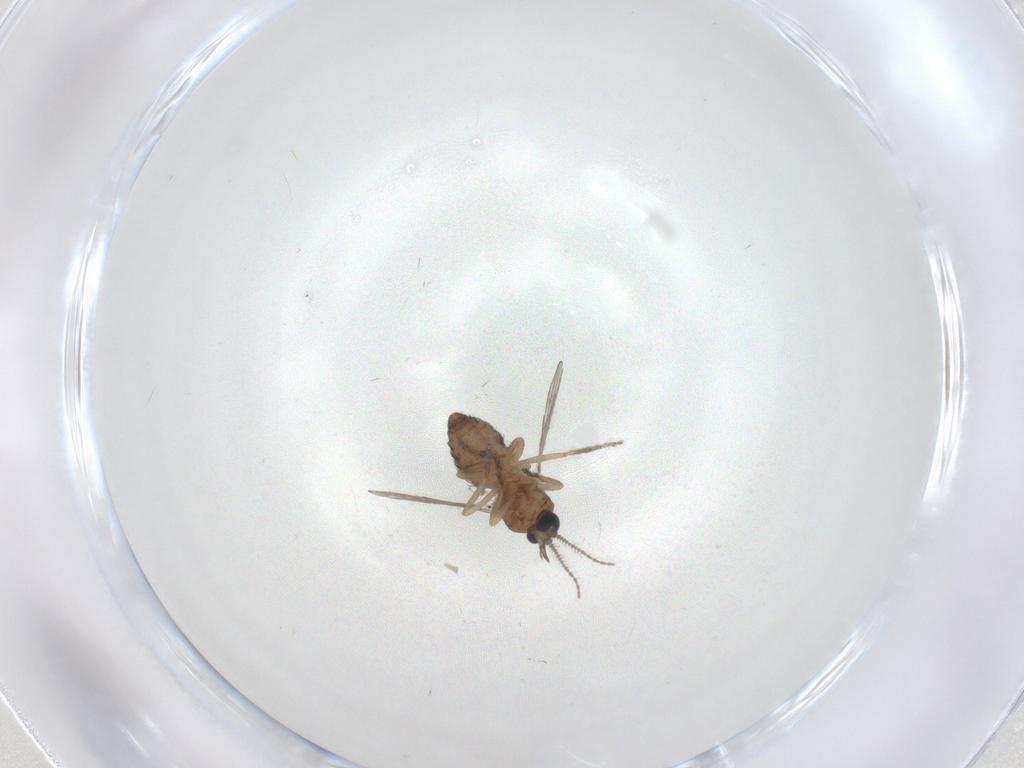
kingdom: Animalia
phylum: Arthropoda
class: Insecta
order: Diptera
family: Ceratopogonidae
